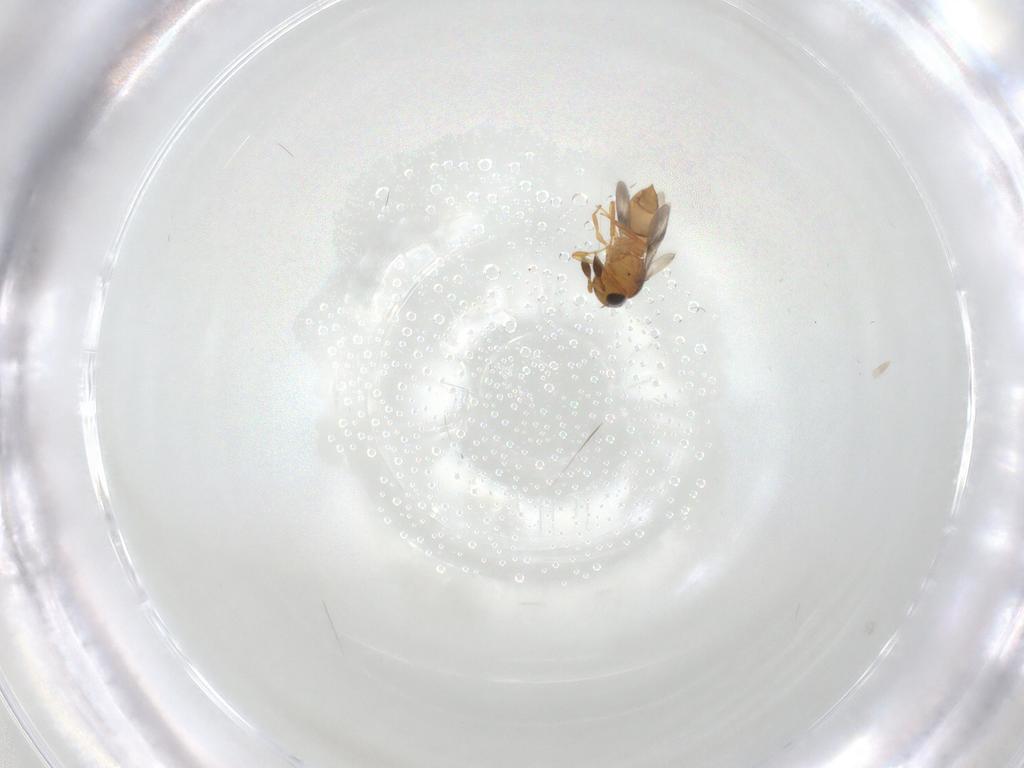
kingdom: Animalia
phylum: Arthropoda
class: Insecta
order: Hymenoptera
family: Scelionidae
